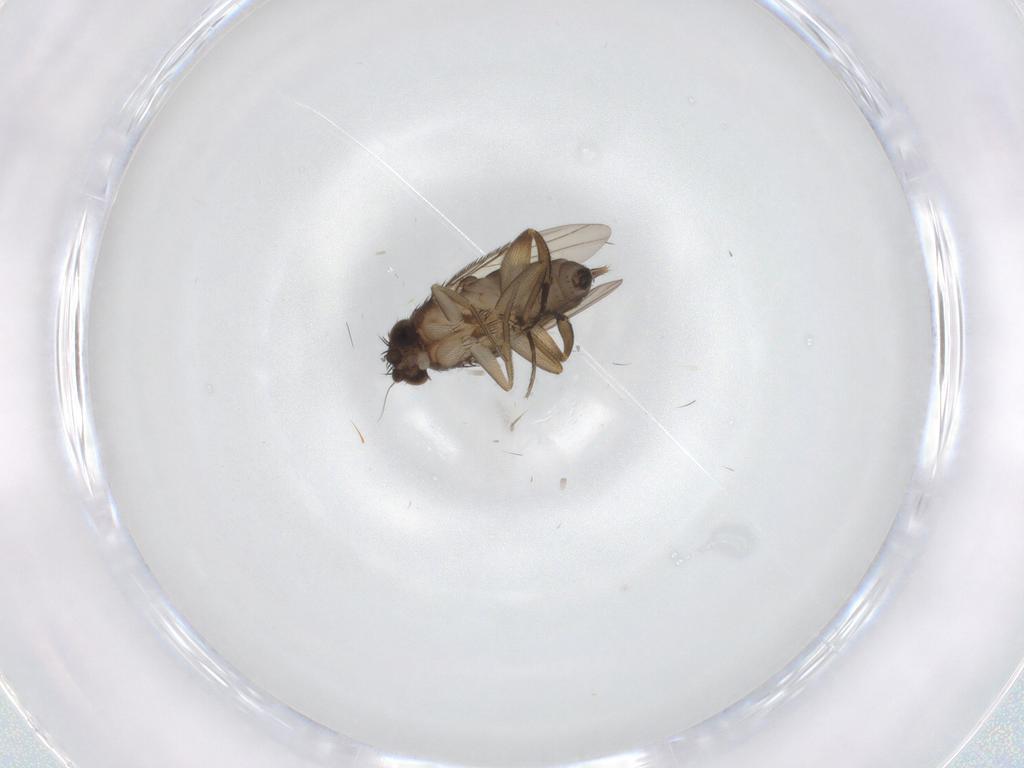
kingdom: Animalia
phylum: Arthropoda
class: Insecta
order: Diptera
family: Phoridae
